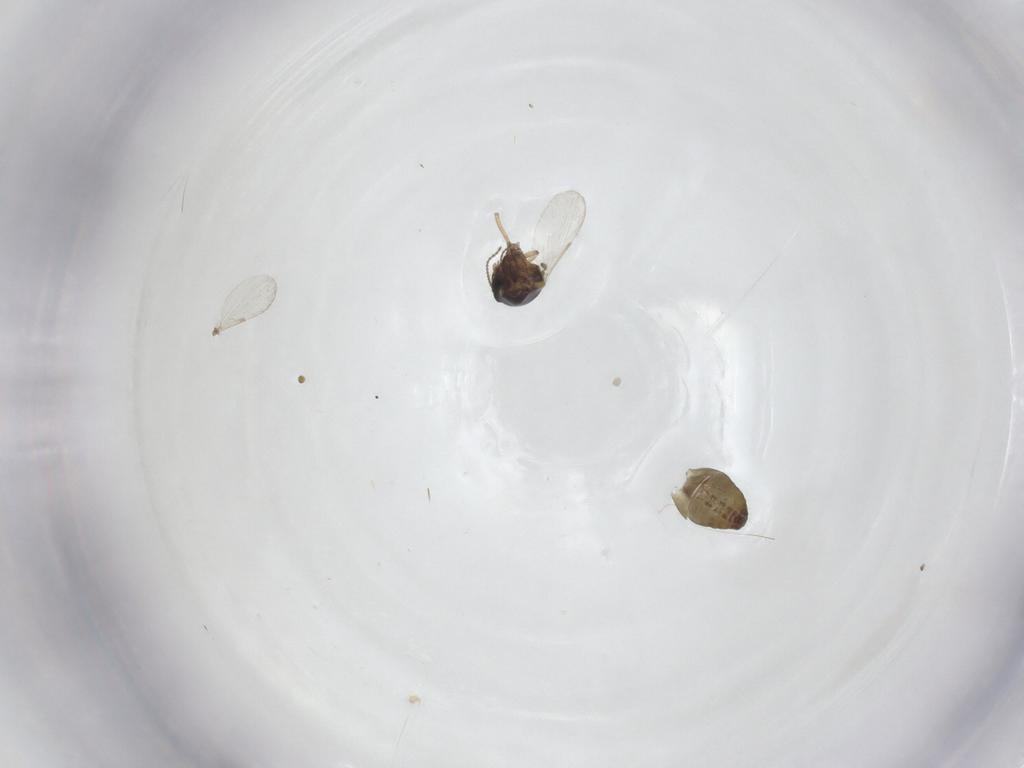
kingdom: Animalia
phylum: Arthropoda
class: Insecta
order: Diptera
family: Ceratopogonidae
